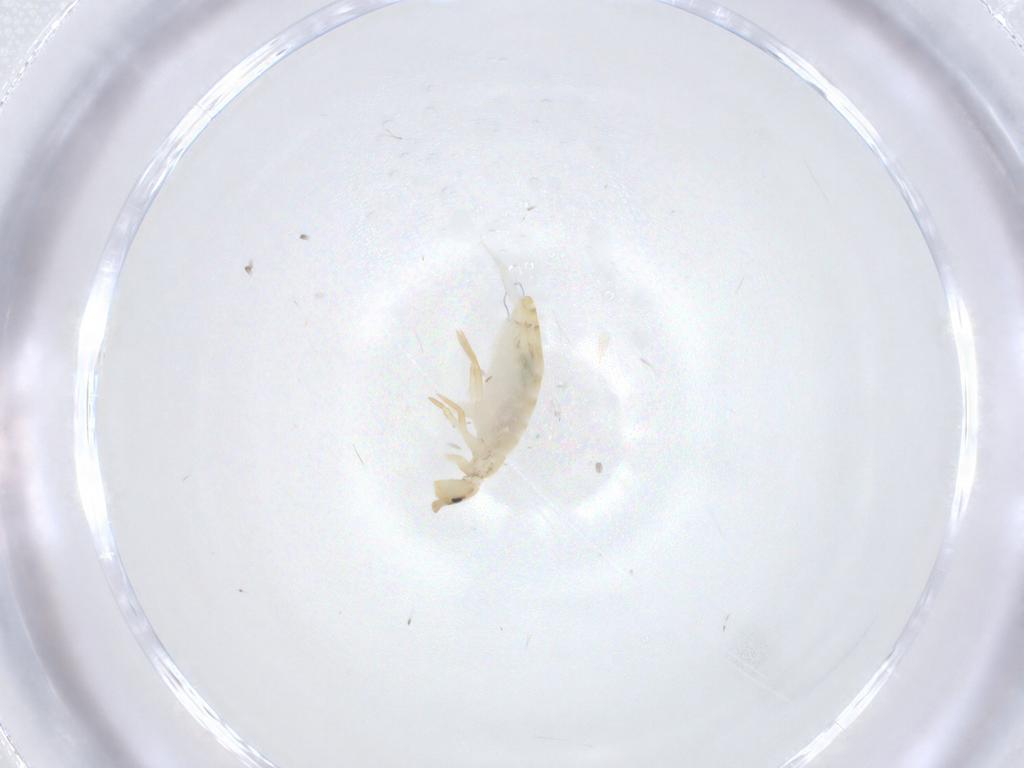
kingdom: Animalia
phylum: Arthropoda
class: Collembola
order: Entomobryomorpha
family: Entomobryidae
